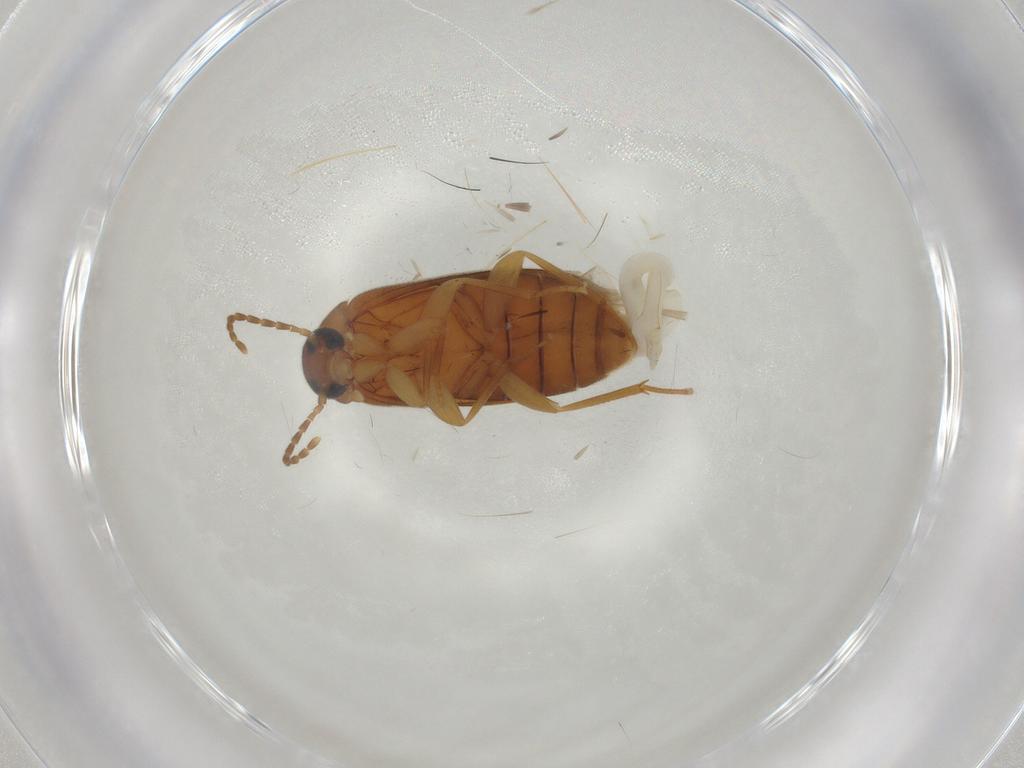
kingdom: Animalia
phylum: Arthropoda
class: Insecta
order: Coleoptera
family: Scraptiidae
